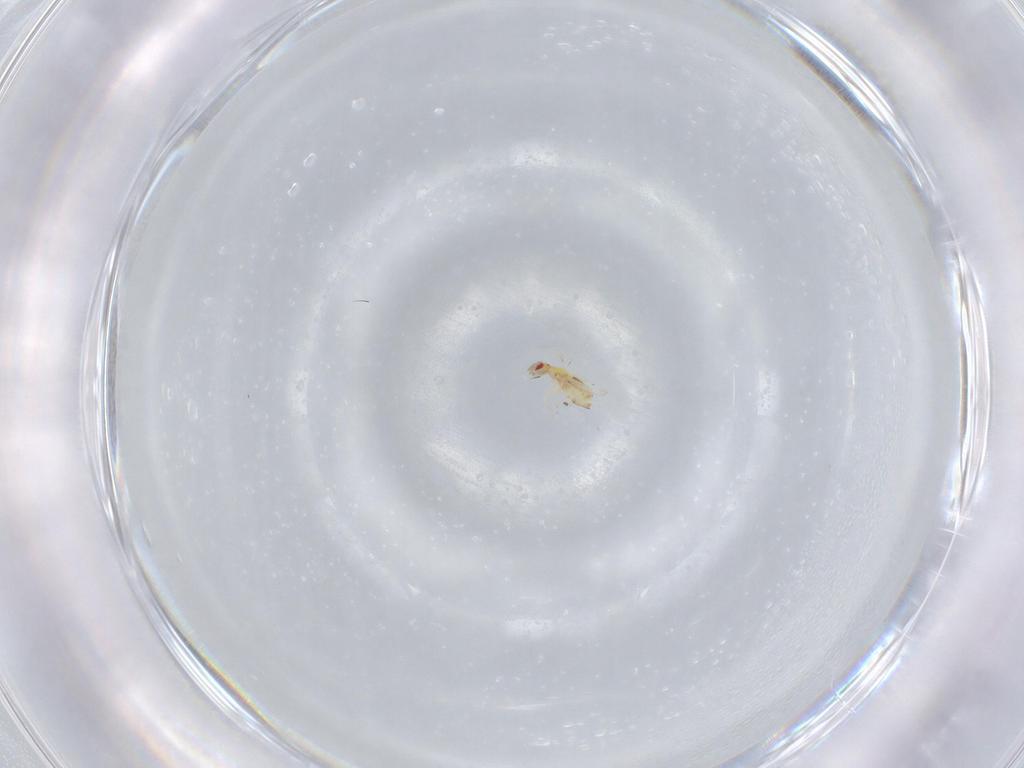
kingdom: Animalia
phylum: Arthropoda
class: Insecta
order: Hymenoptera
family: Trichogrammatidae
